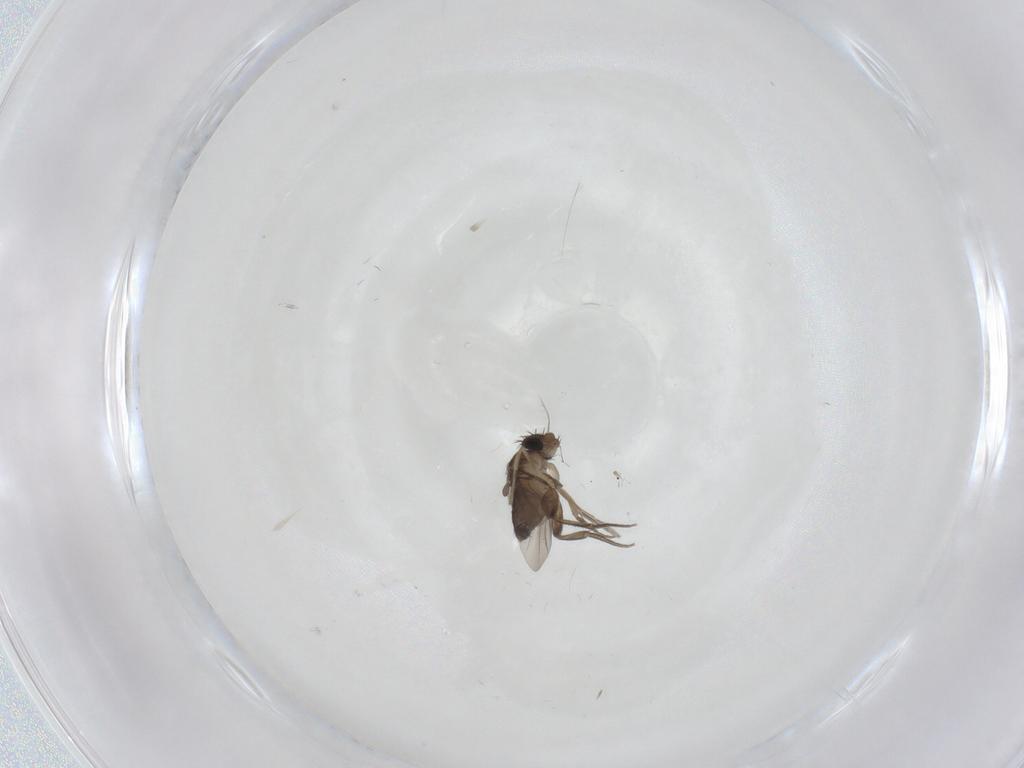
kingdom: Animalia
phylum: Arthropoda
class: Insecta
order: Diptera
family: Phoridae
